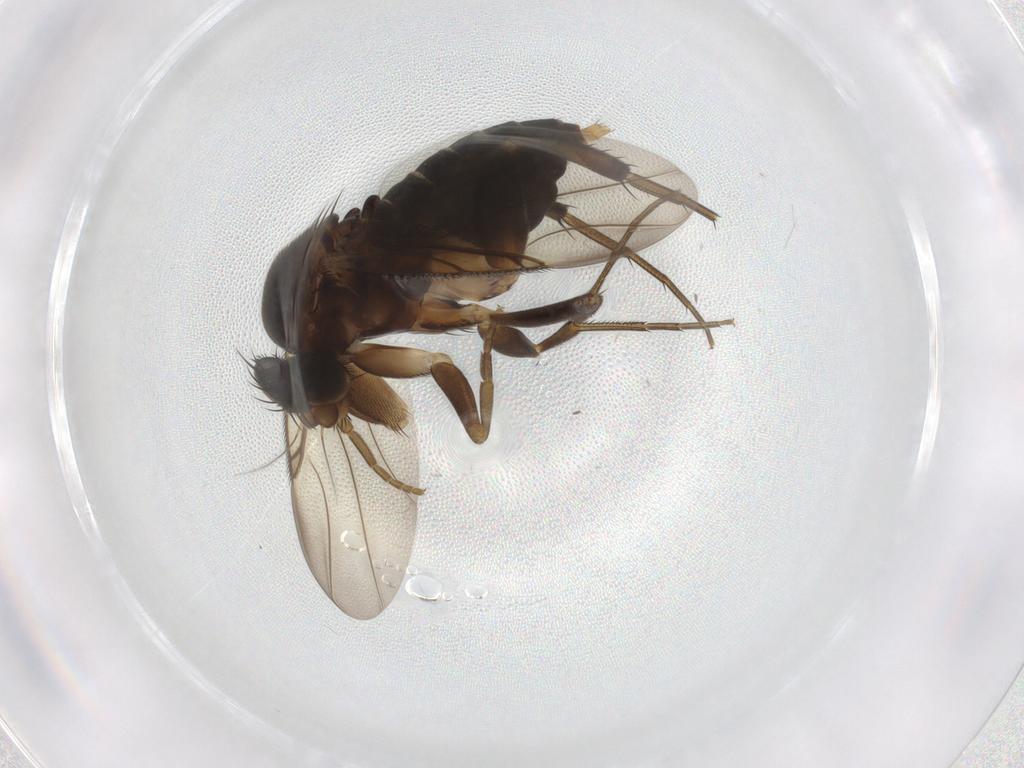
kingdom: Animalia
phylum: Arthropoda
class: Insecta
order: Diptera
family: Phoridae
